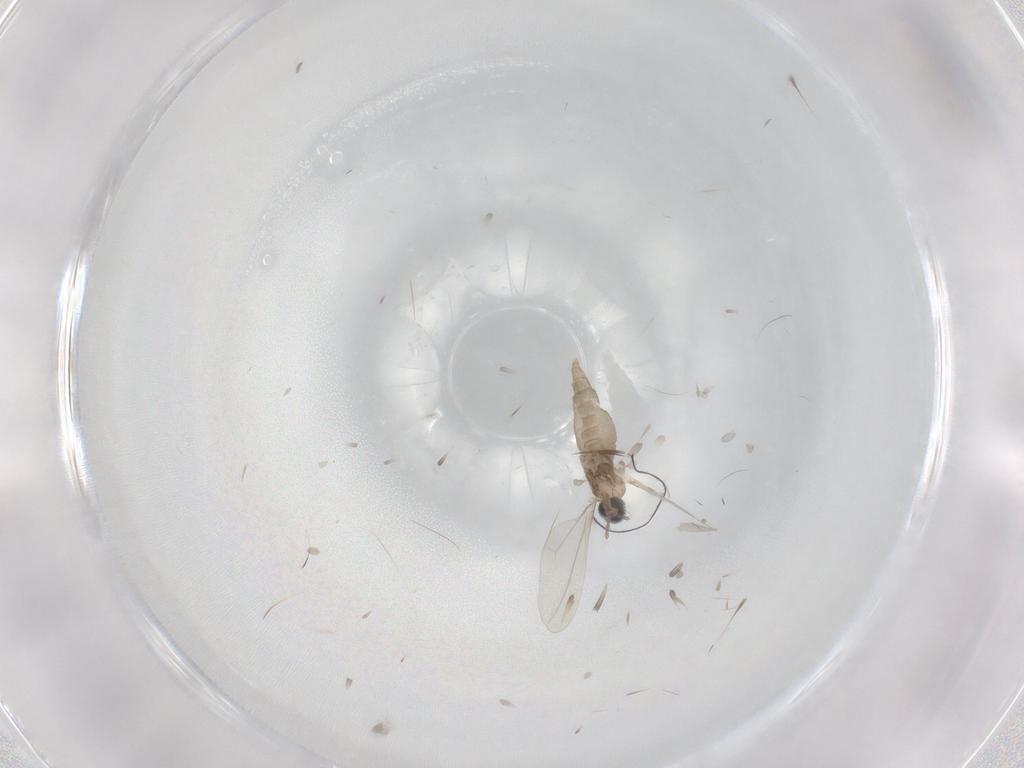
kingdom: Animalia
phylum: Arthropoda
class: Insecta
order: Diptera
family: Cecidomyiidae
